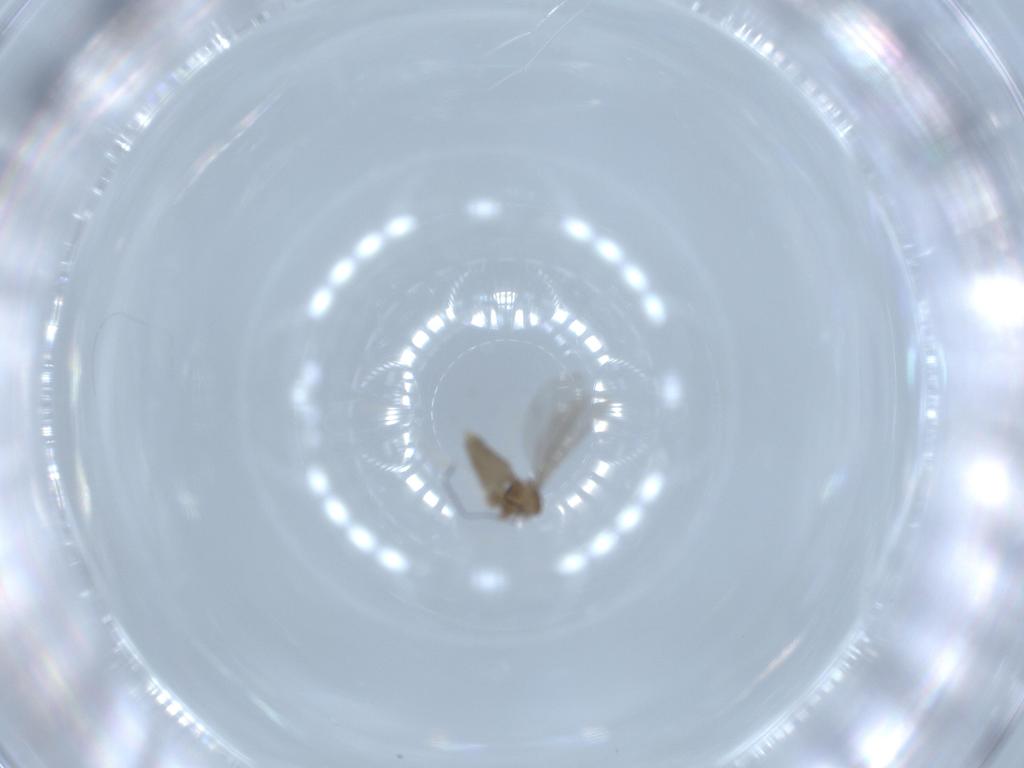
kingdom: Animalia
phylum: Arthropoda
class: Insecta
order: Diptera
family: Cecidomyiidae
